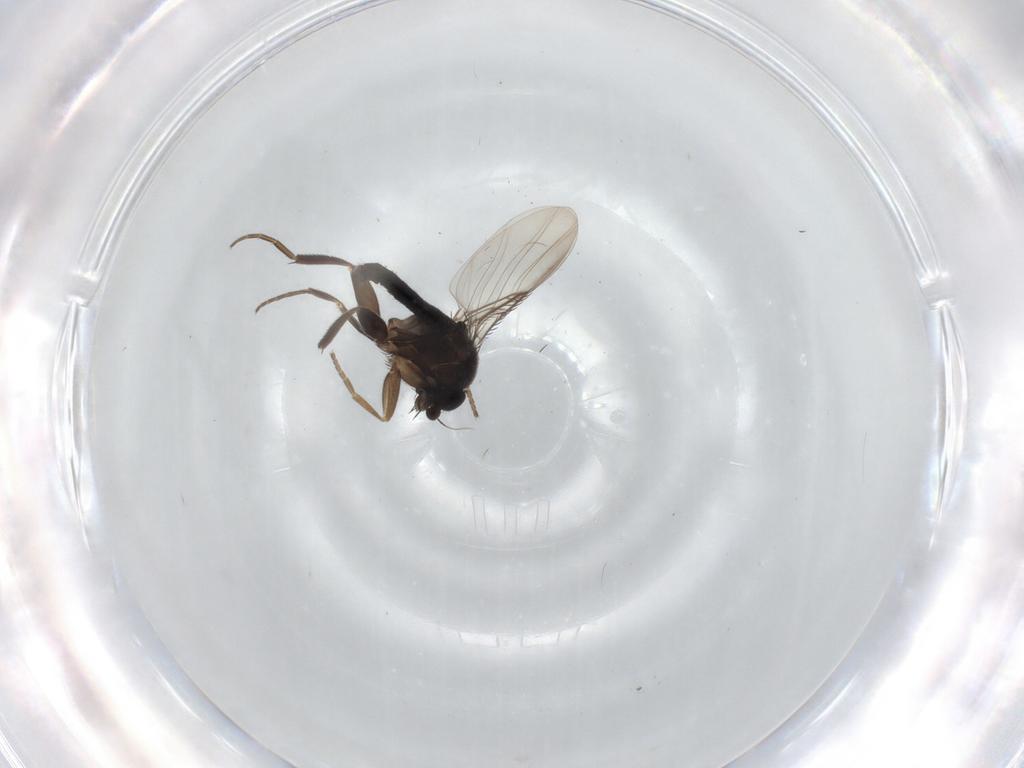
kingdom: Animalia
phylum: Arthropoda
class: Insecta
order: Diptera
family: Phoridae
